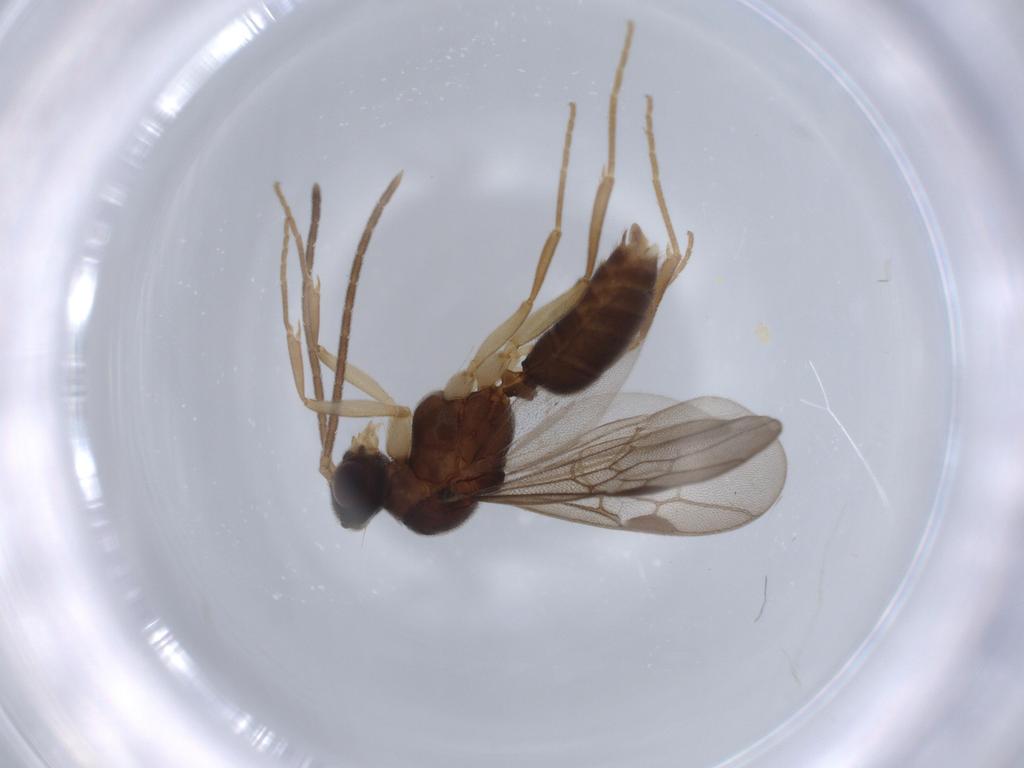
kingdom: Animalia
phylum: Arthropoda
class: Insecta
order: Hymenoptera
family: Formicidae
